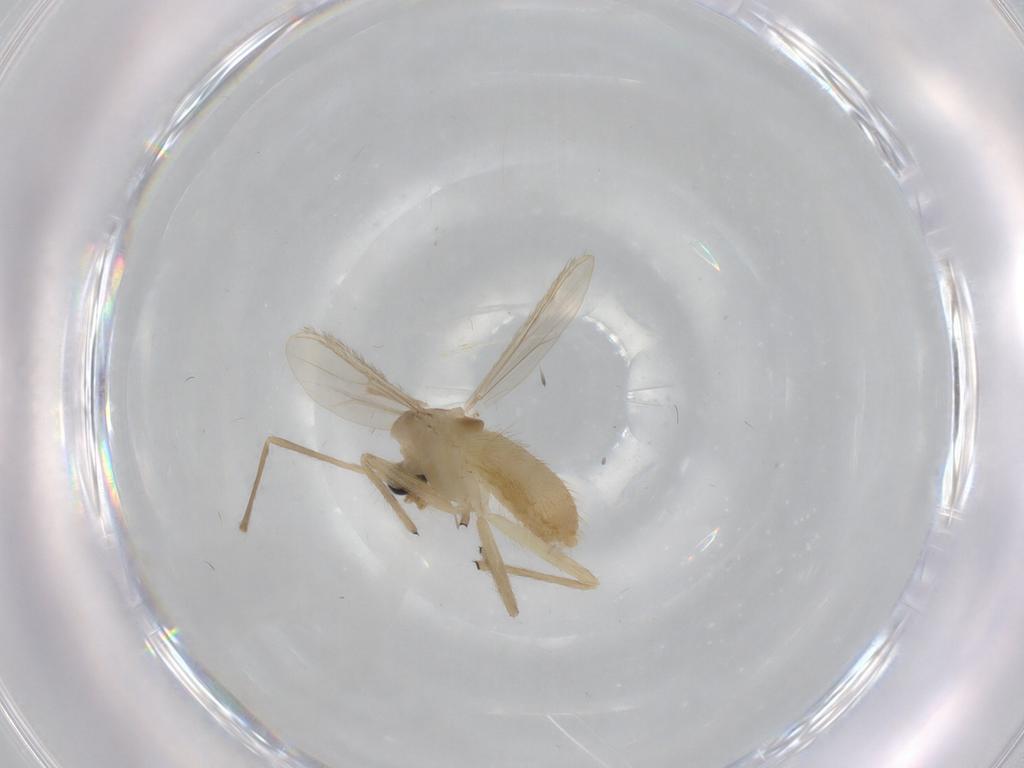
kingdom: Animalia
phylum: Arthropoda
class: Insecta
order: Diptera
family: Chironomidae
